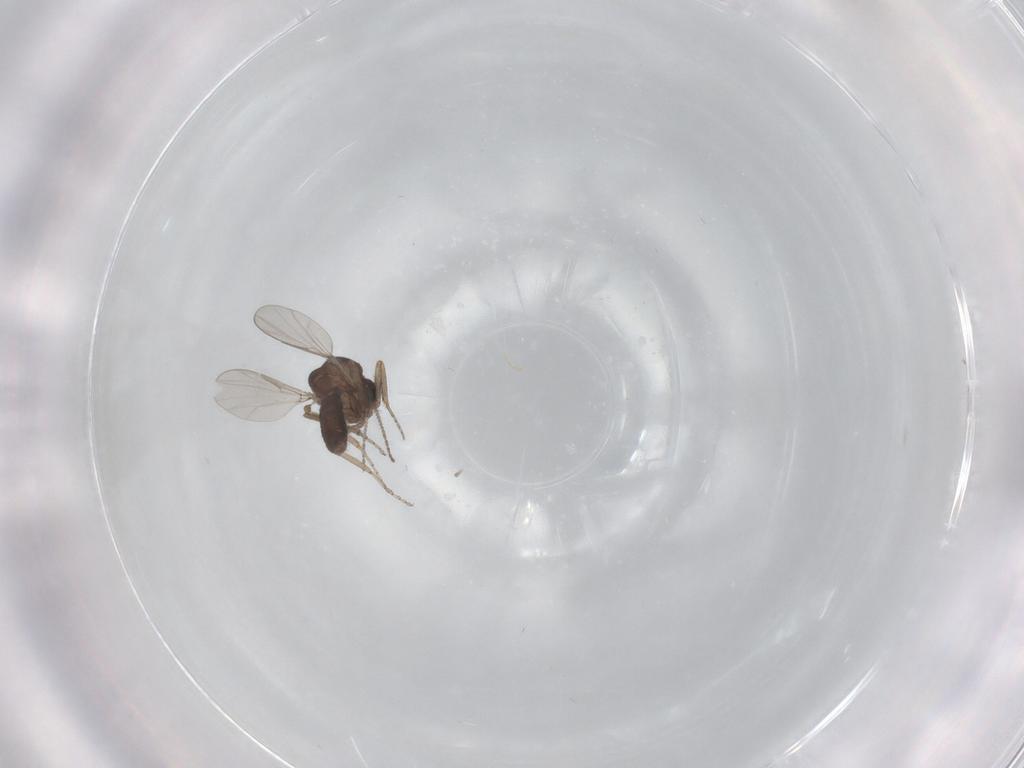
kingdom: Animalia
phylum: Arthropoda
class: Insecta
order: Diptera
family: Ceratopogonidae
